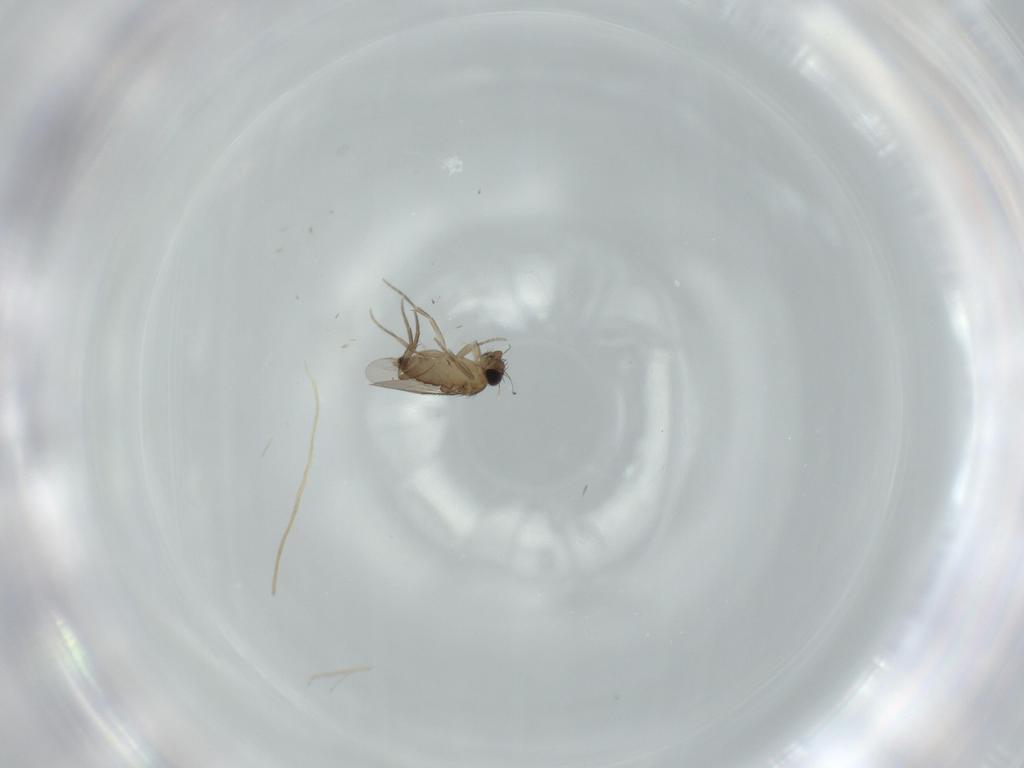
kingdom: Animalia
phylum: Arthropoda
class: Insecta
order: Diptera
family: Phoridae
